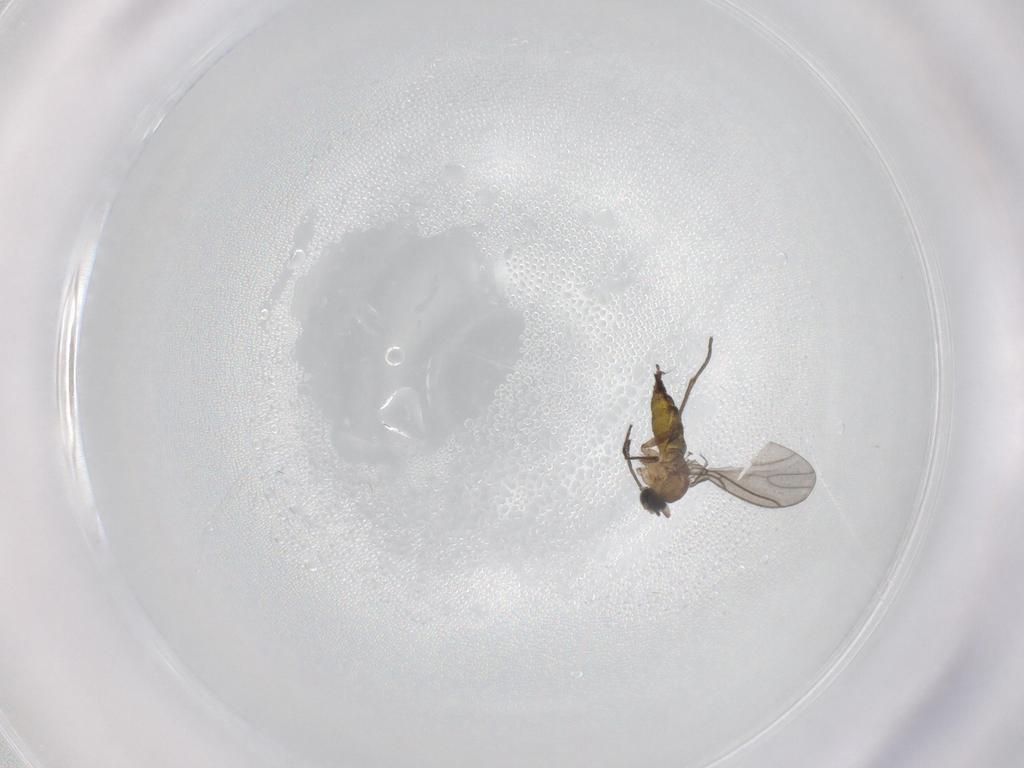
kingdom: Animalia
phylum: Arthropoda
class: Insecta
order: Diptera
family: Sciaridae
